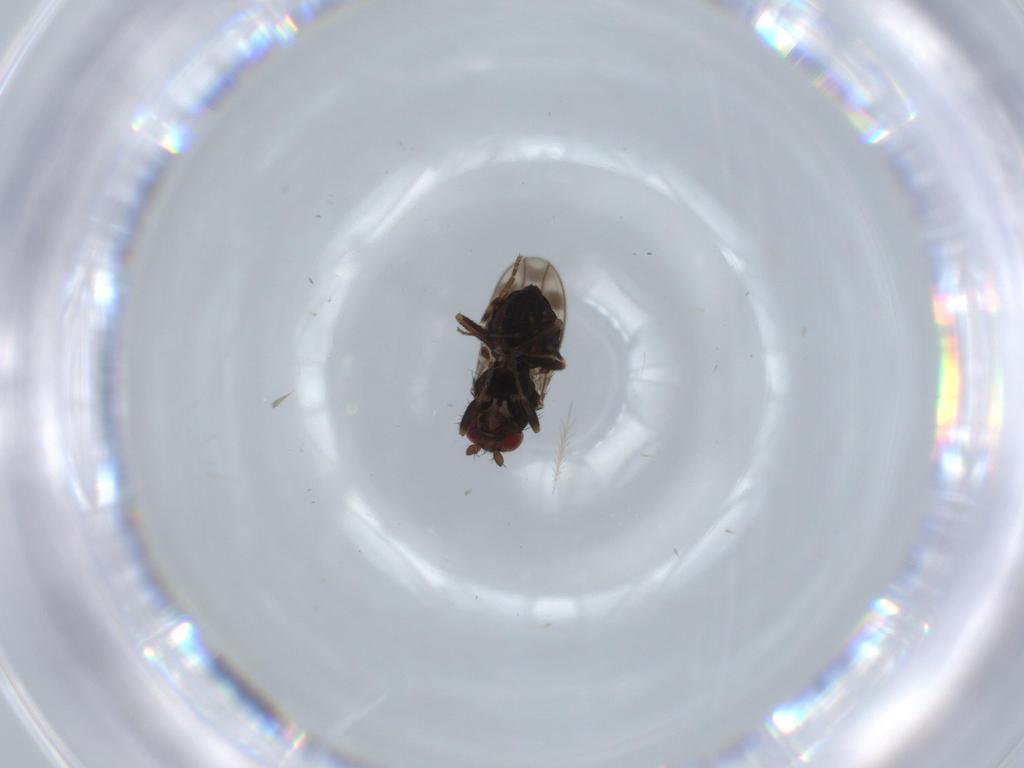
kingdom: Animalia
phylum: Arthropoda
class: Insecta
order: Diptera
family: Sphaeroceridae
